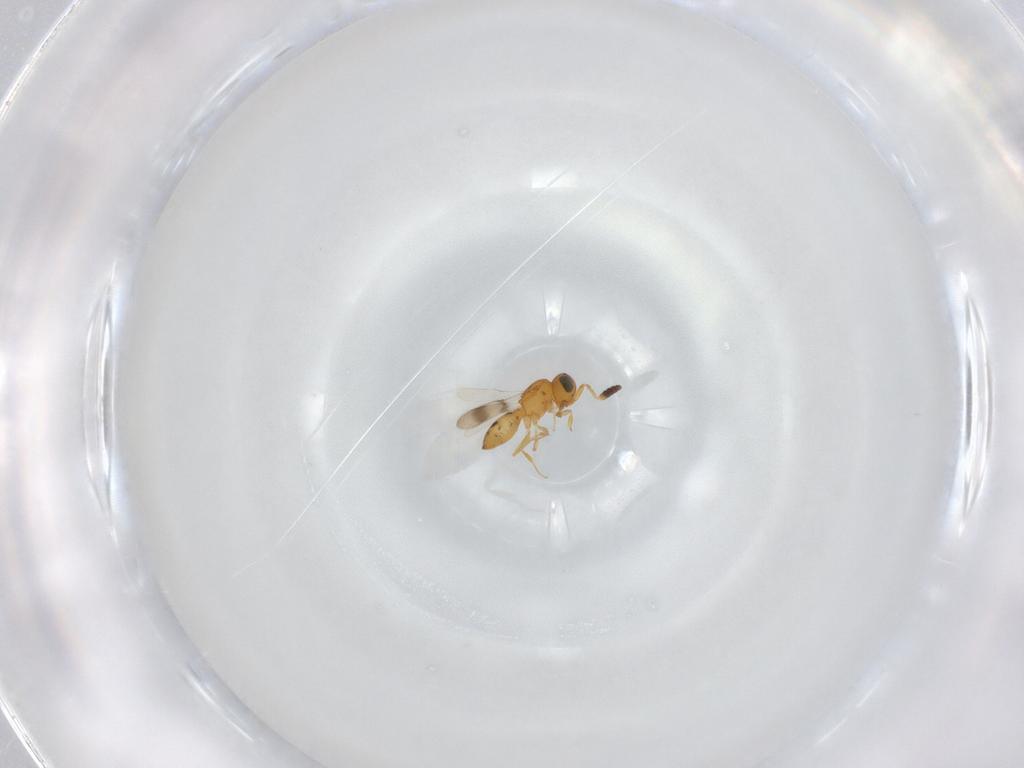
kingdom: Animalia
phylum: Arthropoda
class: Insecta
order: Hymenoptera
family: Scelionidae
